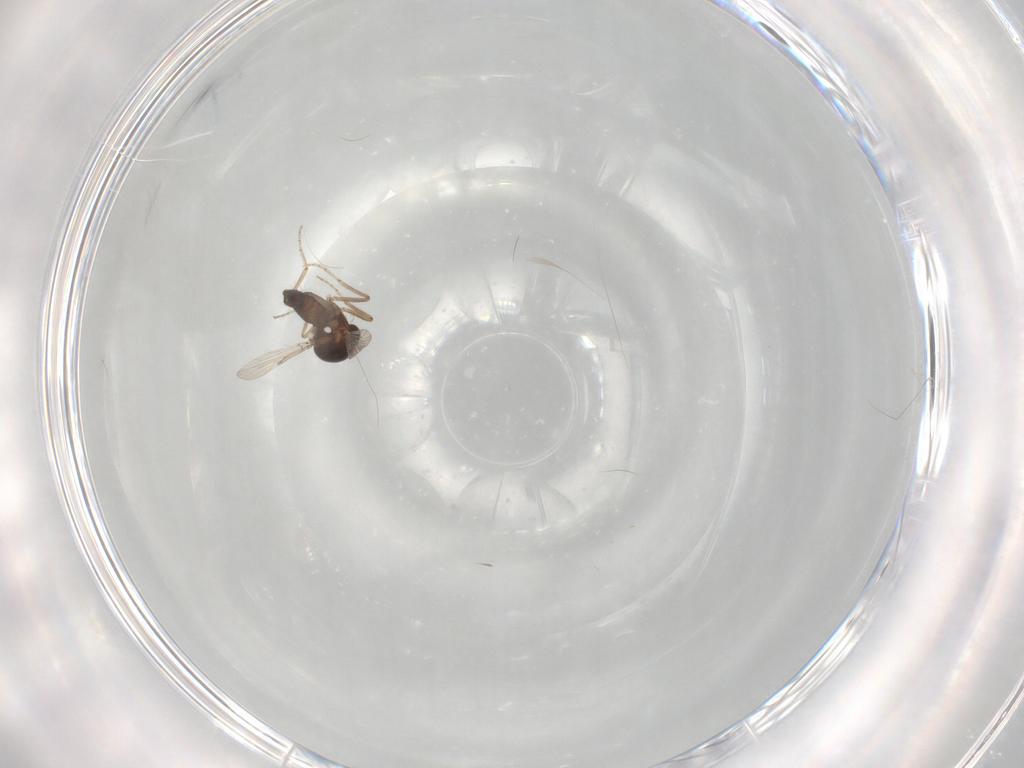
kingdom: Animalia
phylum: Arthropoda
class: Insecta
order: Diptera
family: Ceratopogonidae
